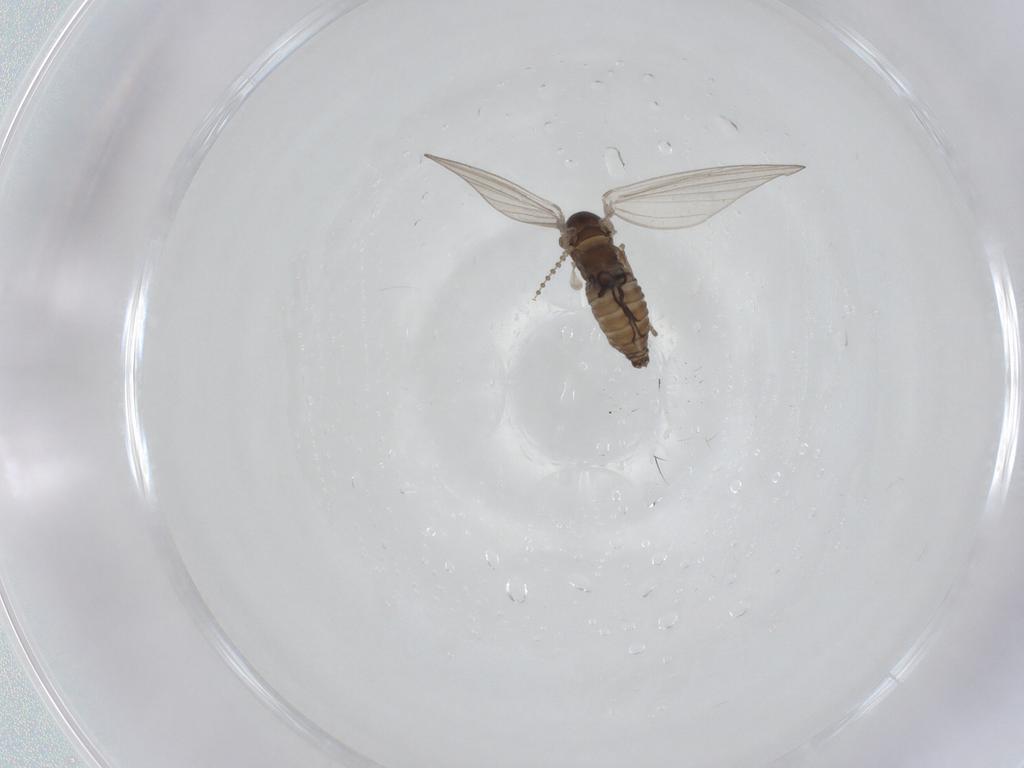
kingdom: Animalia
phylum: Arthropoda
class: Insecta
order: Diptera
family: Psychodidae
